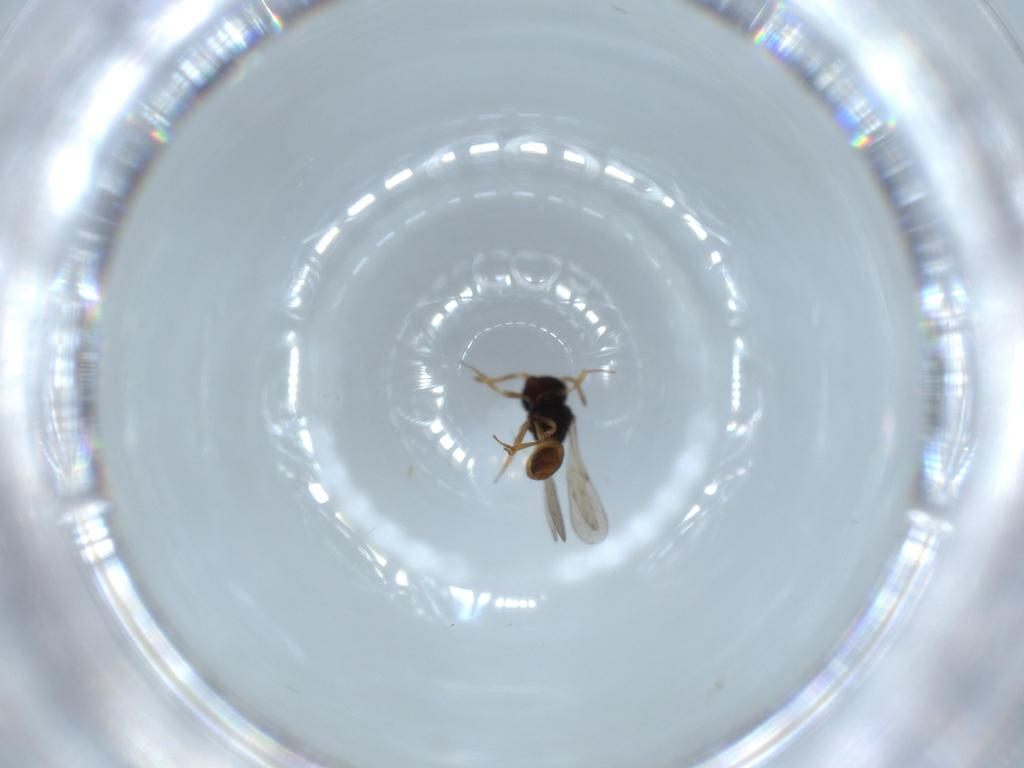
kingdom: Animalia
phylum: Arthropoda
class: Insecta
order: Hymenoptera
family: Scelionidae
